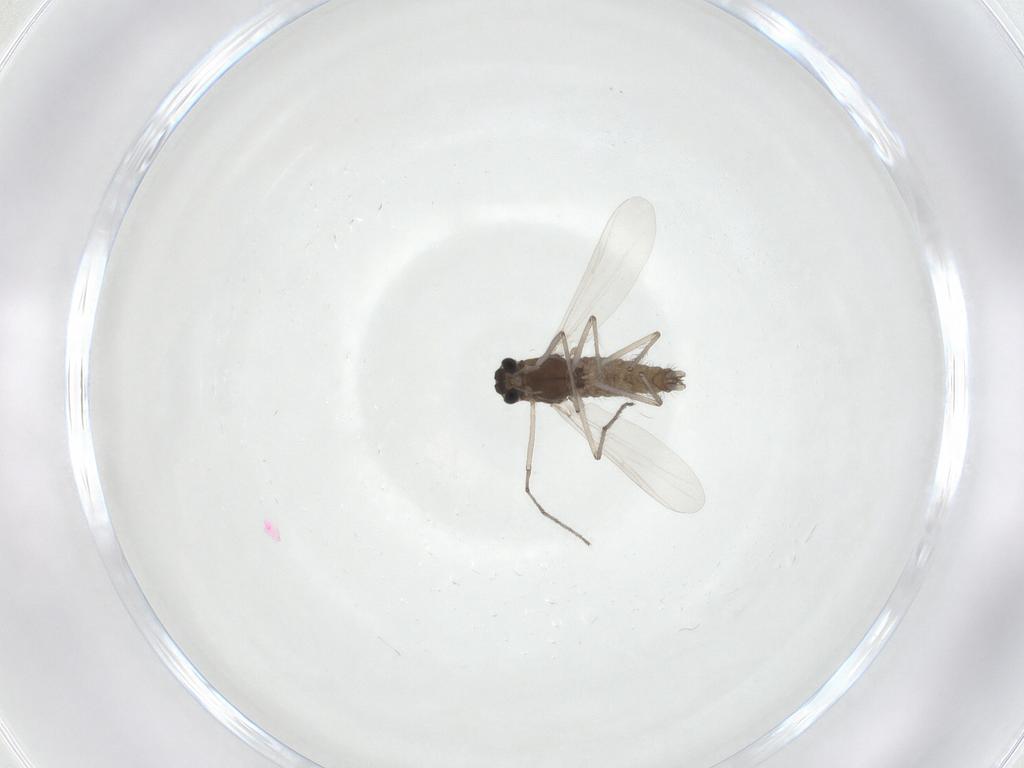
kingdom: Animalia
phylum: Arthropoda
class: Insecta
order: Diptera
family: Chironomidae
